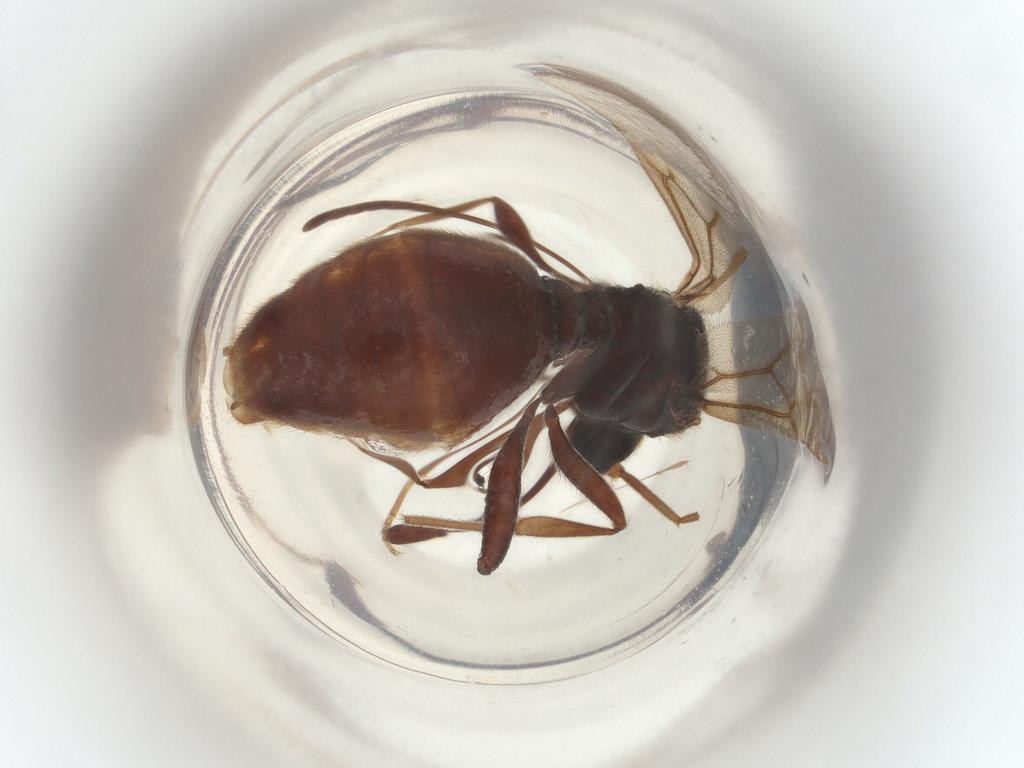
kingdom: Animalia
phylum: Arthropoda
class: Insecta
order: Hymenoptera
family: Formicidae
